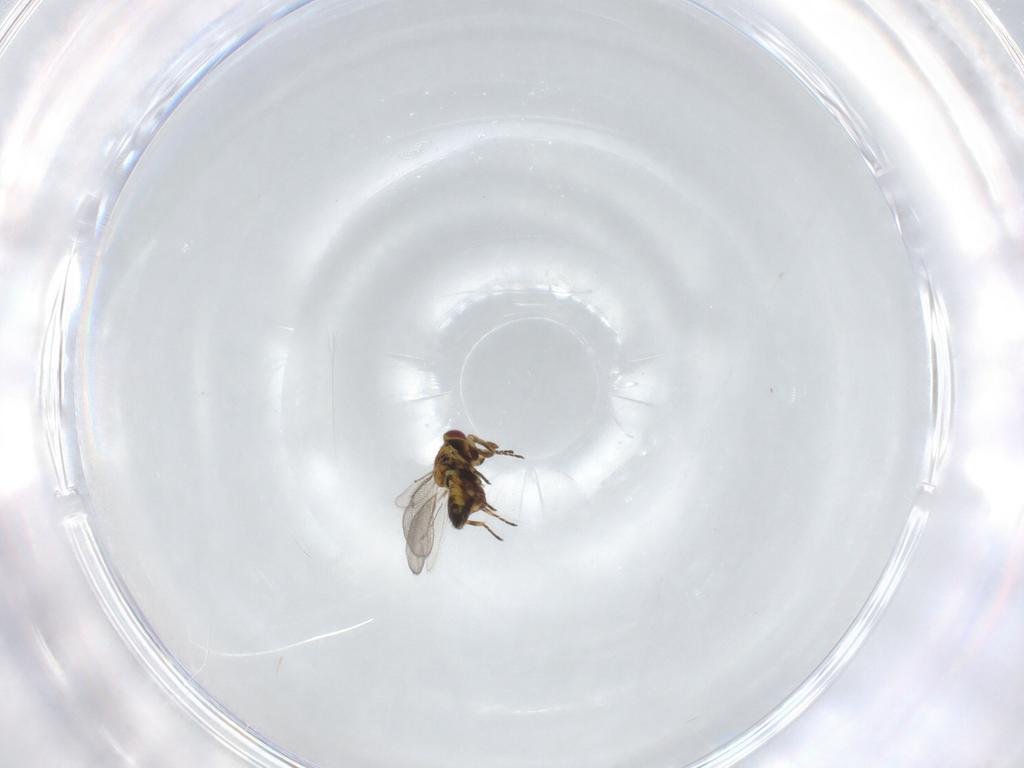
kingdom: Animalia
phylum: Arthropoda
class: Insecta
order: Hymenoptera
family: Eulophidae
